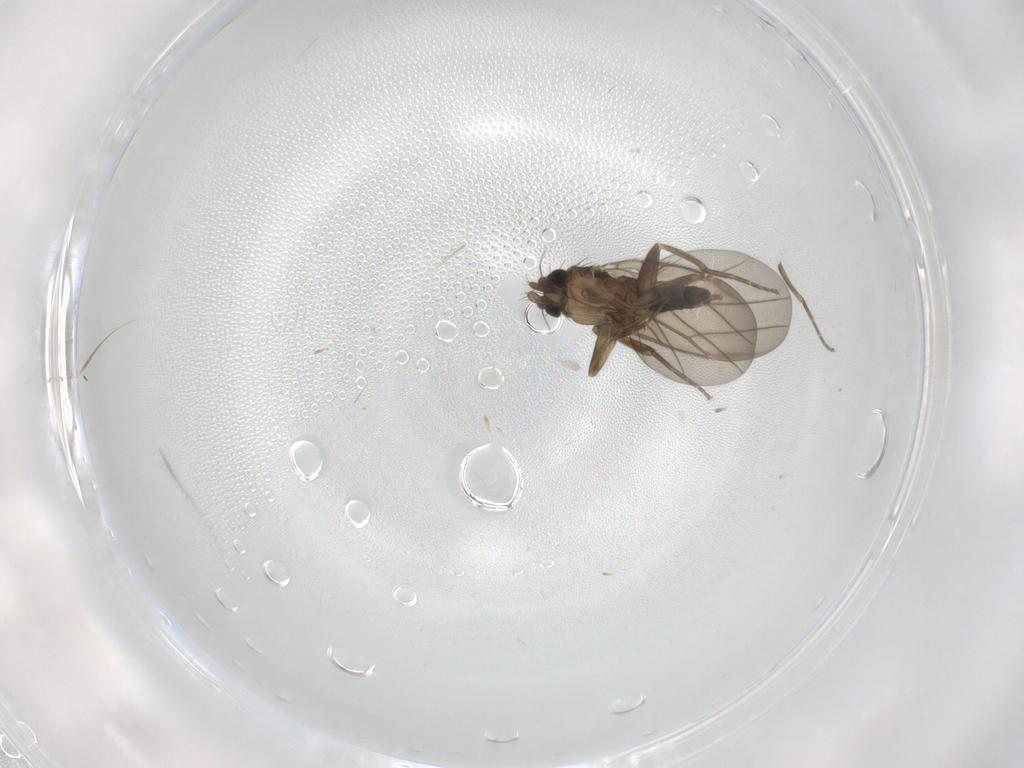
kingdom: Animalia
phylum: Arthropoda
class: Insecta
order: Diptera
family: Phoridae
